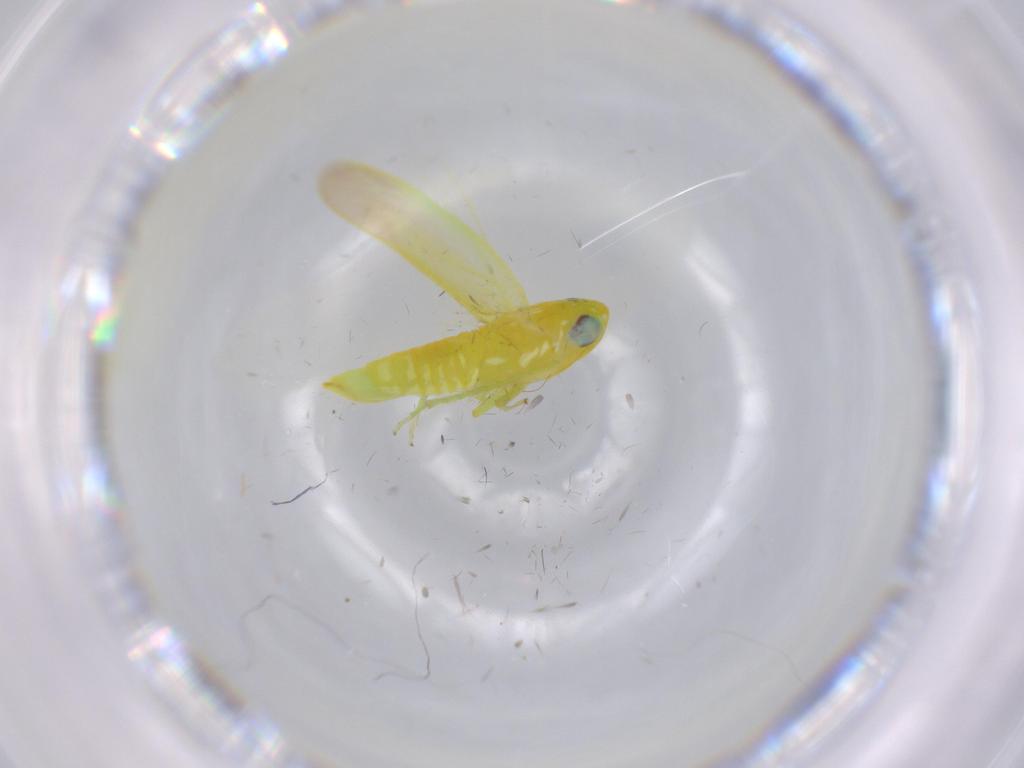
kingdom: Animalia
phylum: Arthropoda
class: Insecta
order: Hemiptera
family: Cicadellidae
